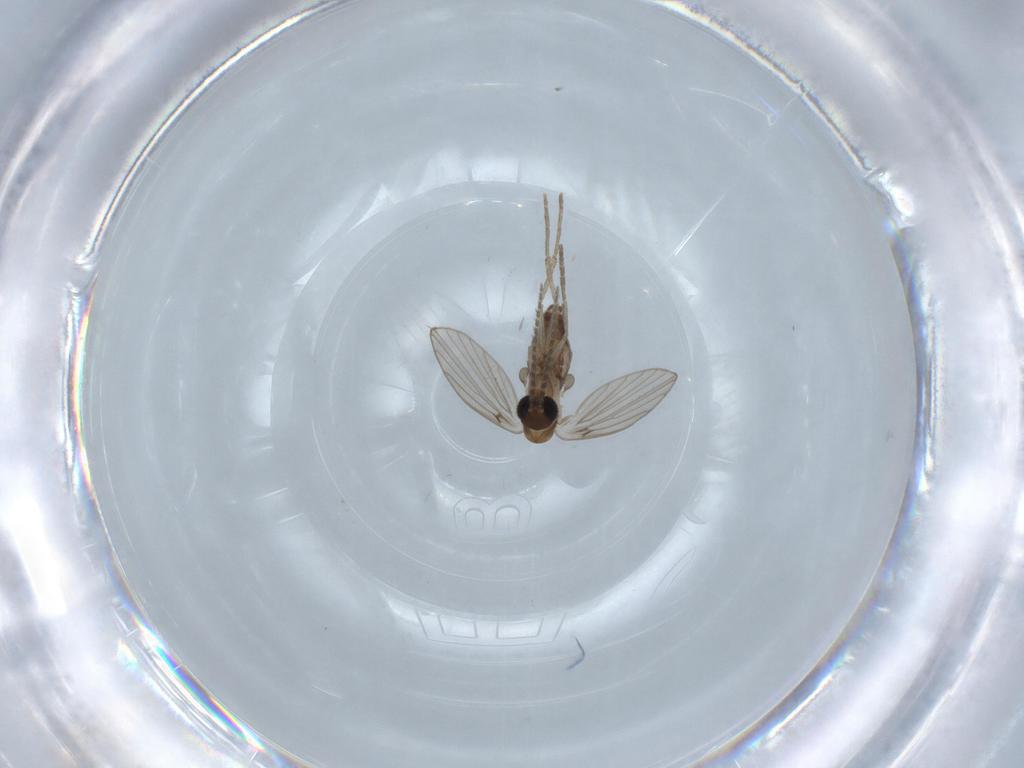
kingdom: Animalia
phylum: Arthropoda
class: Insecta
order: Diptera
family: Psychodidae
